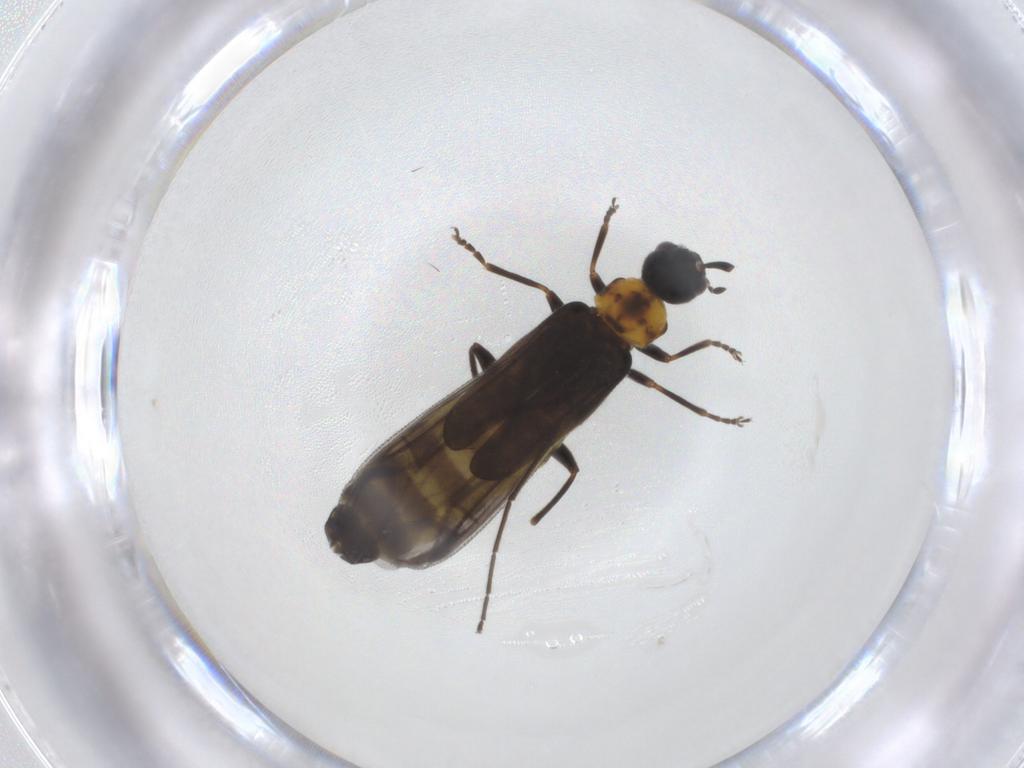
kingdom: Animalia
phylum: Arthropoda
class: Insecta
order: Coleoptera
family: Cantharidae
